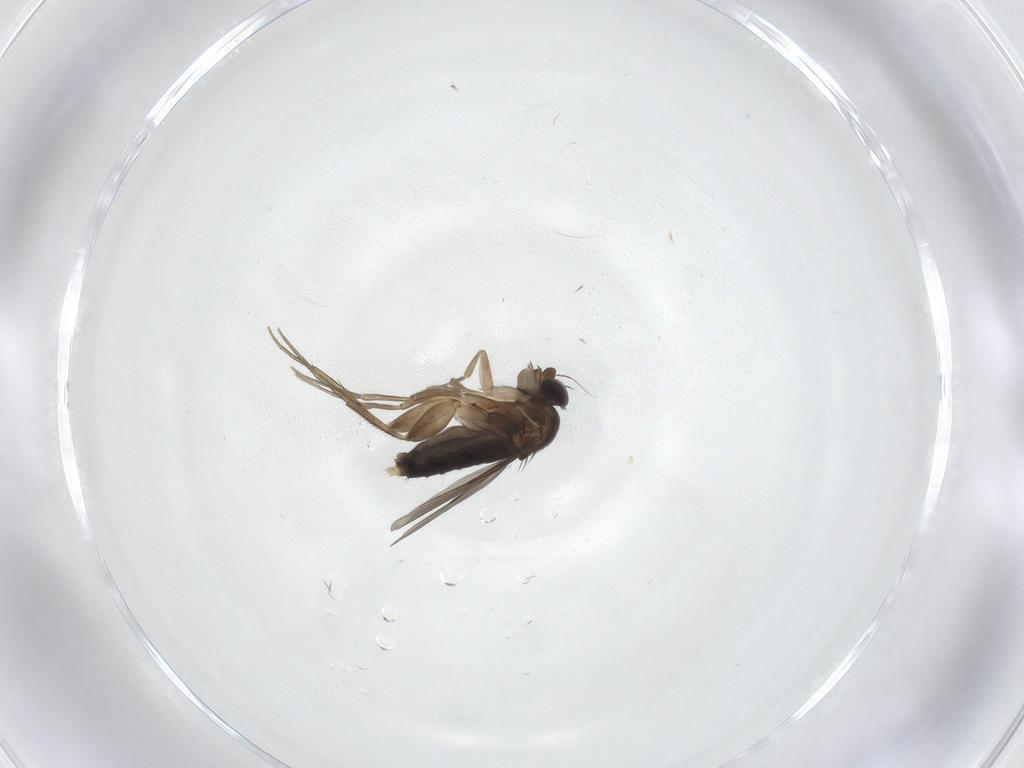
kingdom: Animalia
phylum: Arthropoda
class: Insecta
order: Diptera
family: Phoridae
